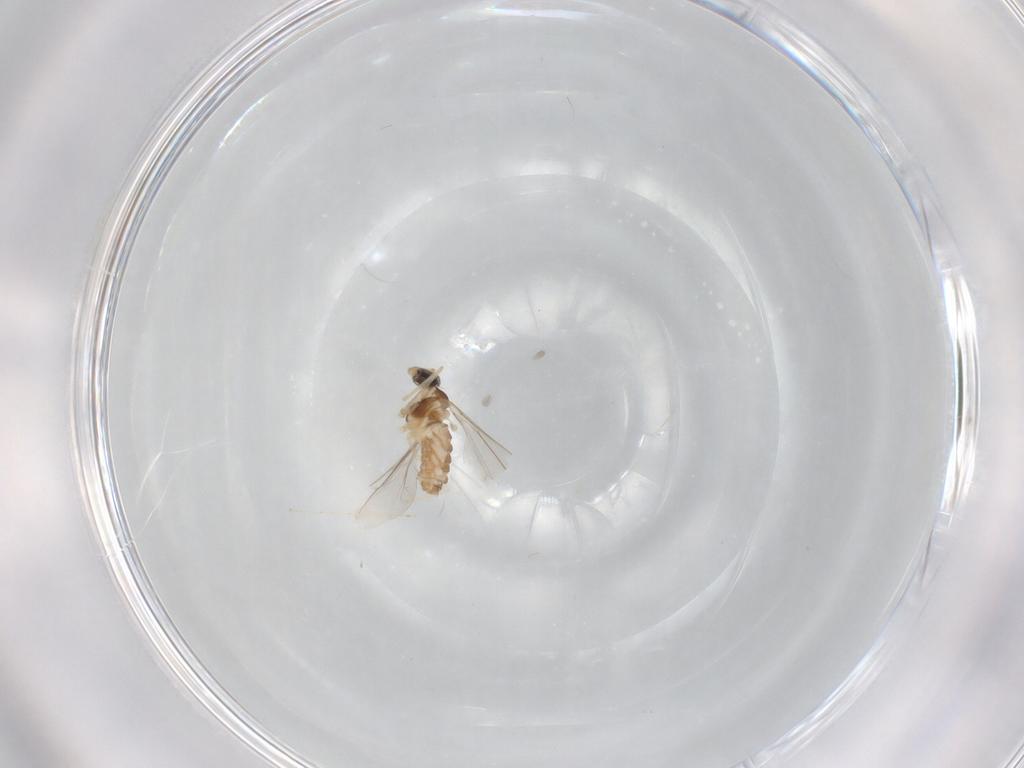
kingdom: Animalia
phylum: Arthropoda
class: Insecta
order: Diptera
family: Cecidomyiidae
